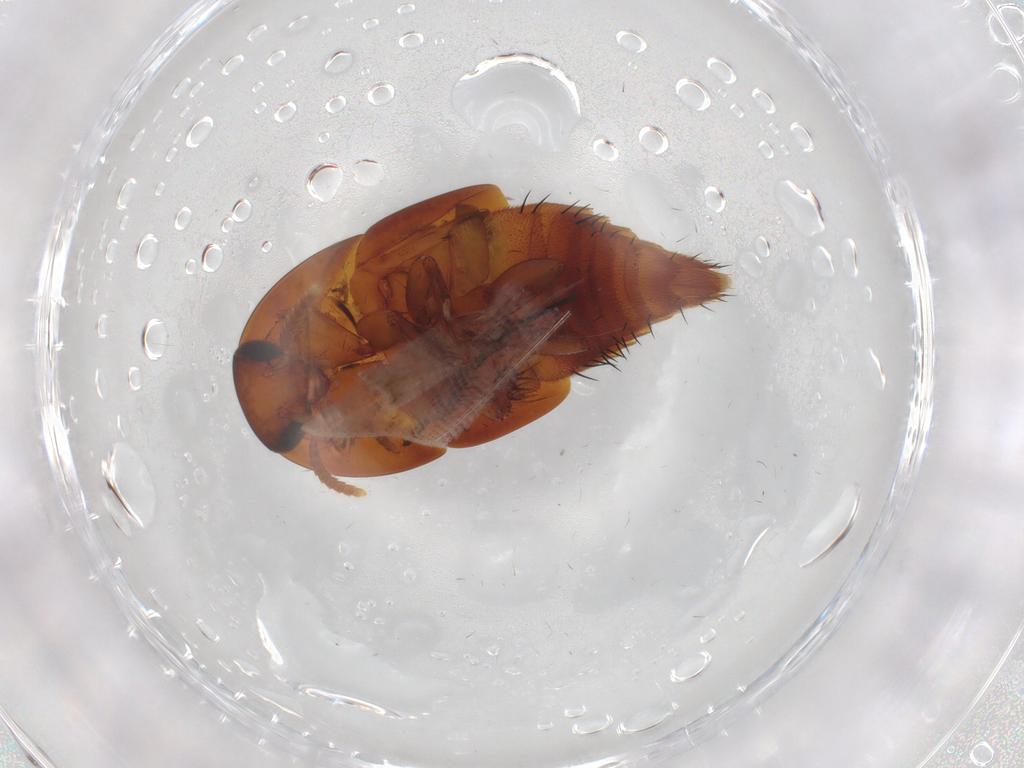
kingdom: Animalia
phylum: Arthropoda
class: Insecta
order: Coleoptera
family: Staphylinidae
